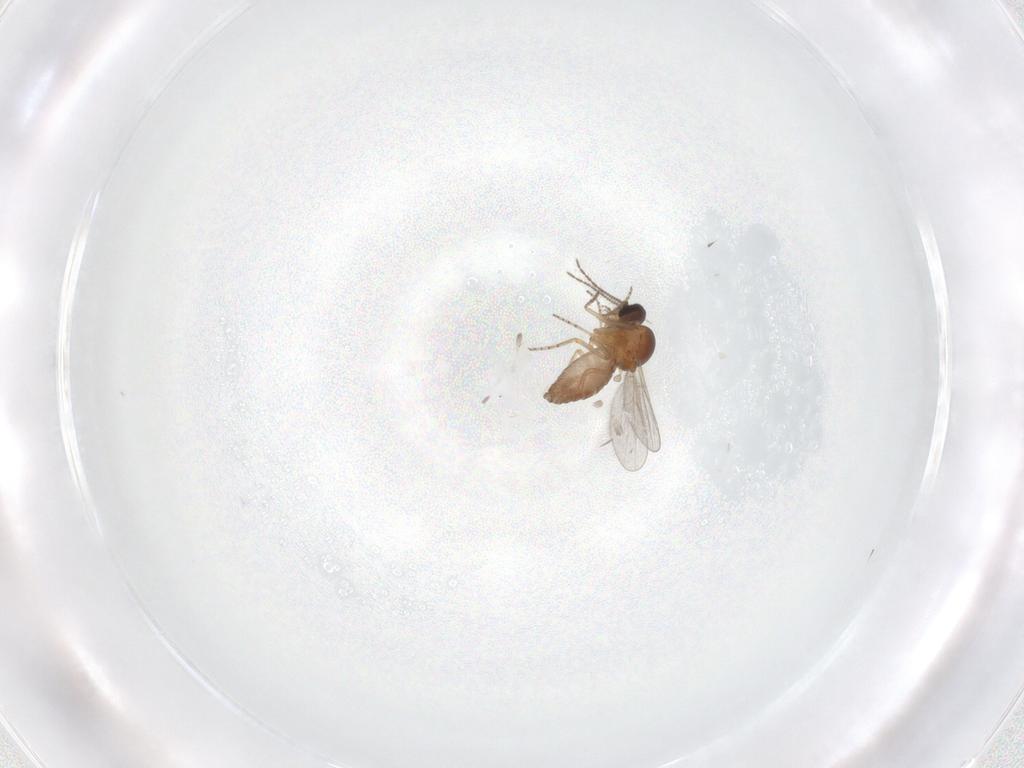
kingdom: Animalia
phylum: Arthropoda
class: Insecta
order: Diptera
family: Ceratopogonidae
